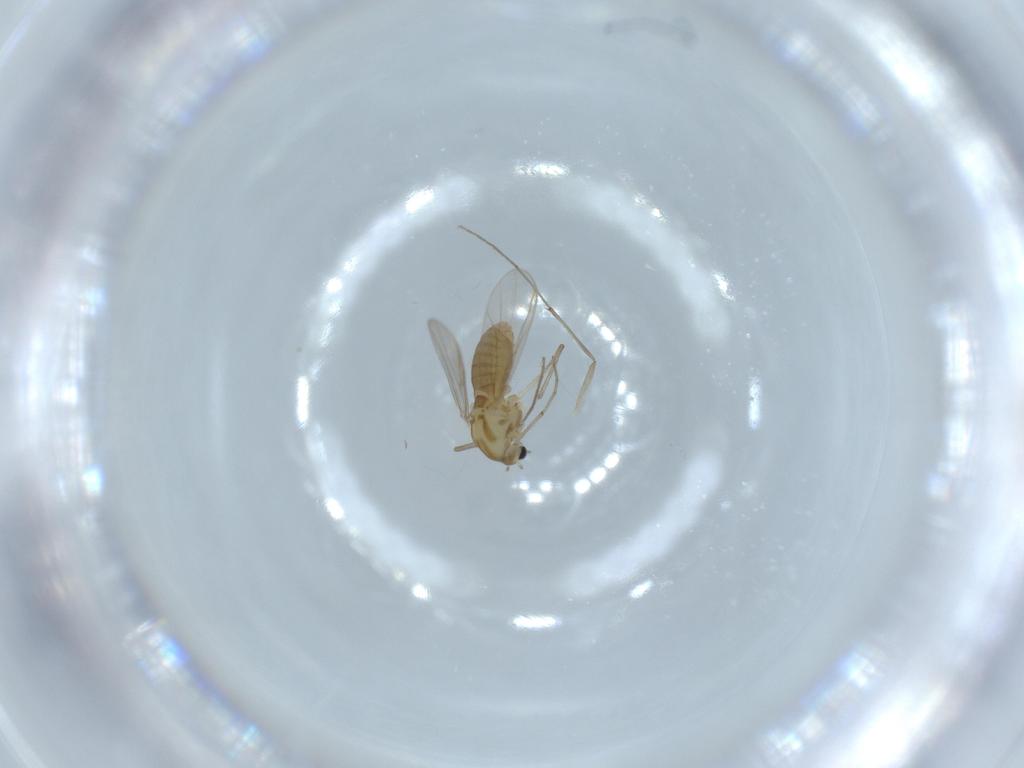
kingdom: Animalia
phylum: Arthropoda
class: Insecta
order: Diptera
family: Chironomidae
